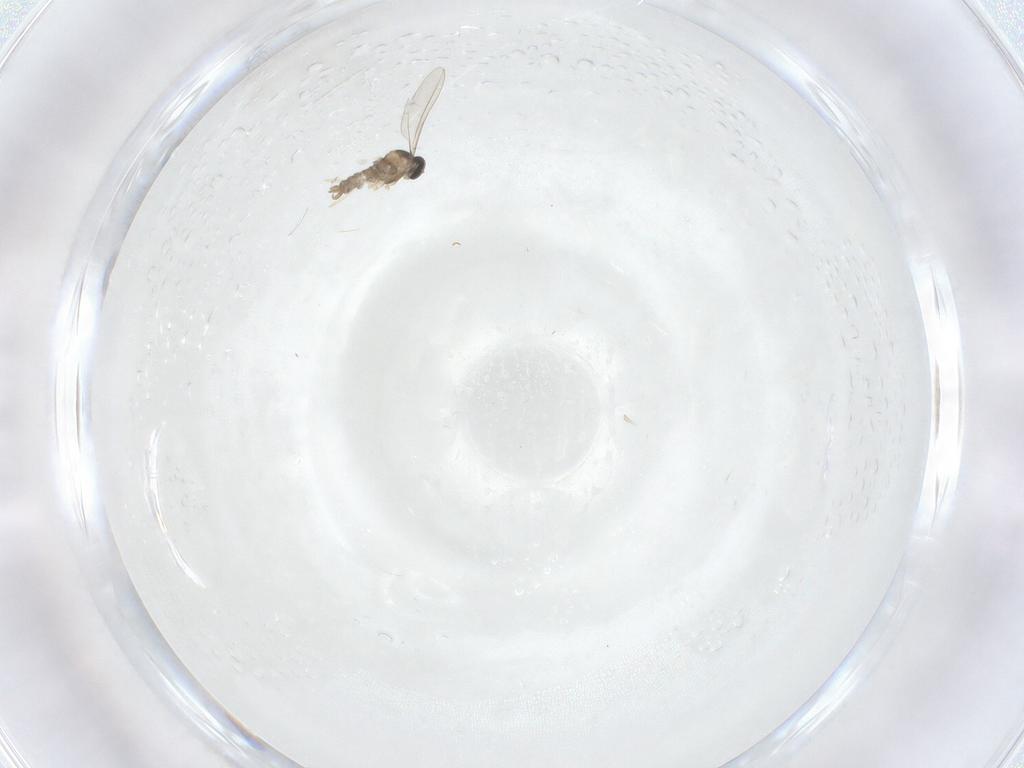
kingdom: Animalia
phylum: Arthropoda
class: Insecta
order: Diptera
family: Cecidomyiidae
